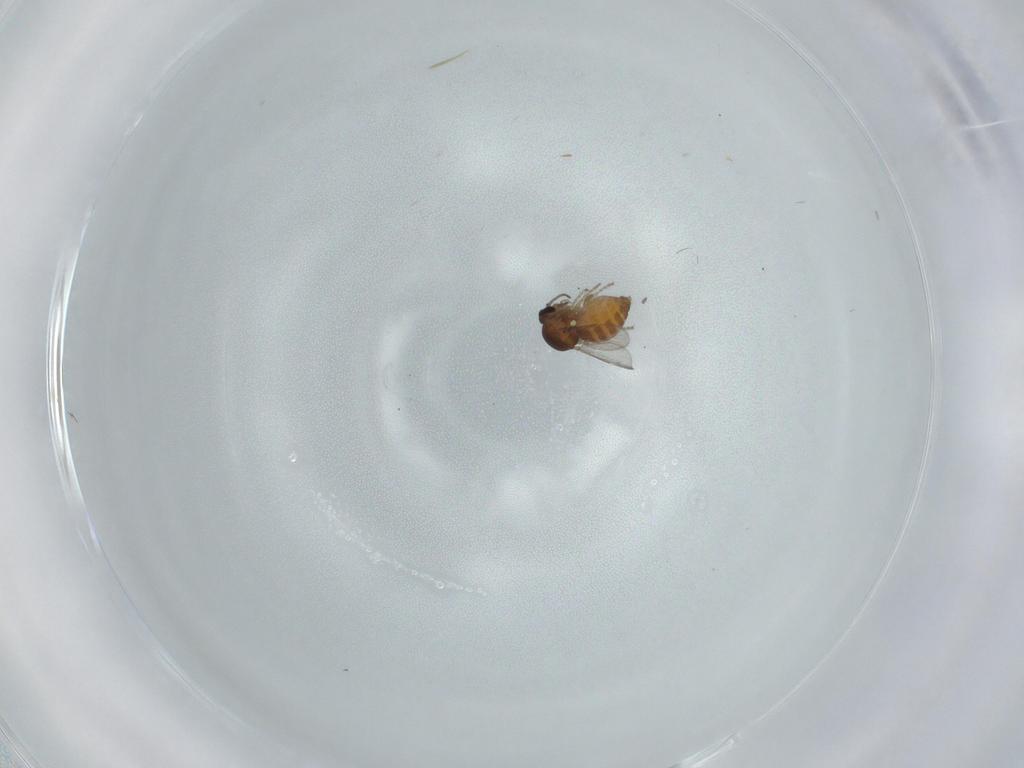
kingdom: Animalia
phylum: Arthropoda
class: Insecta
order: Diptera
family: Ceratopogonidae
